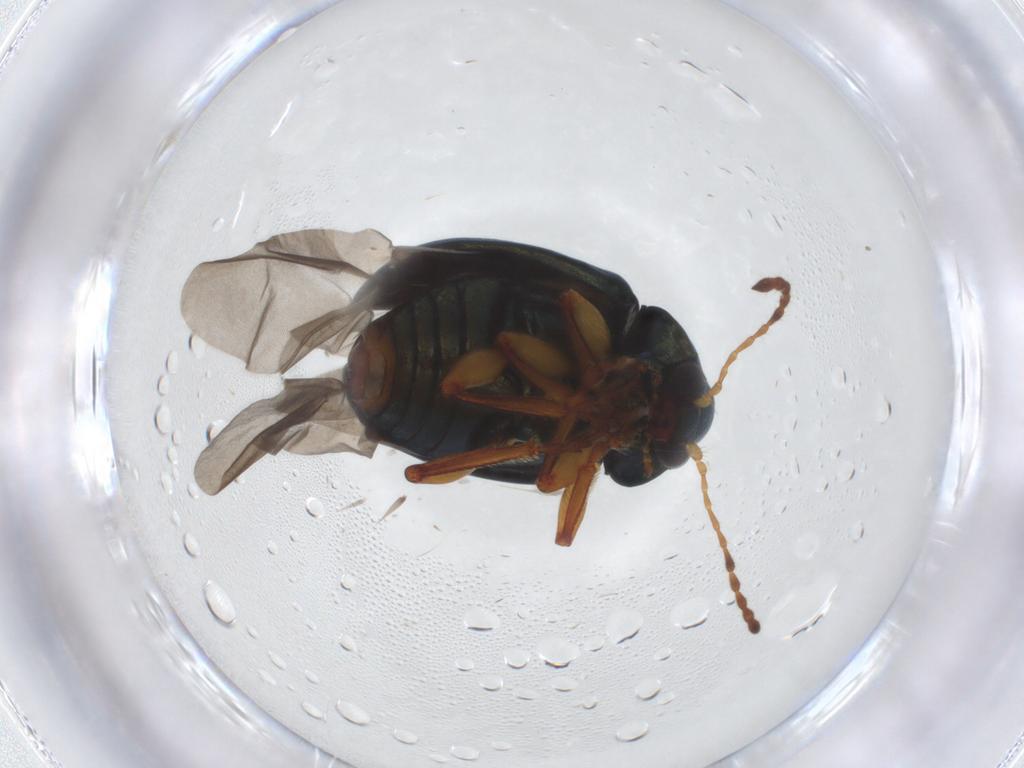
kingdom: Animalia
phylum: Arthropoda
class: Insecta
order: Coleoptera
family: Chrysomelidae
